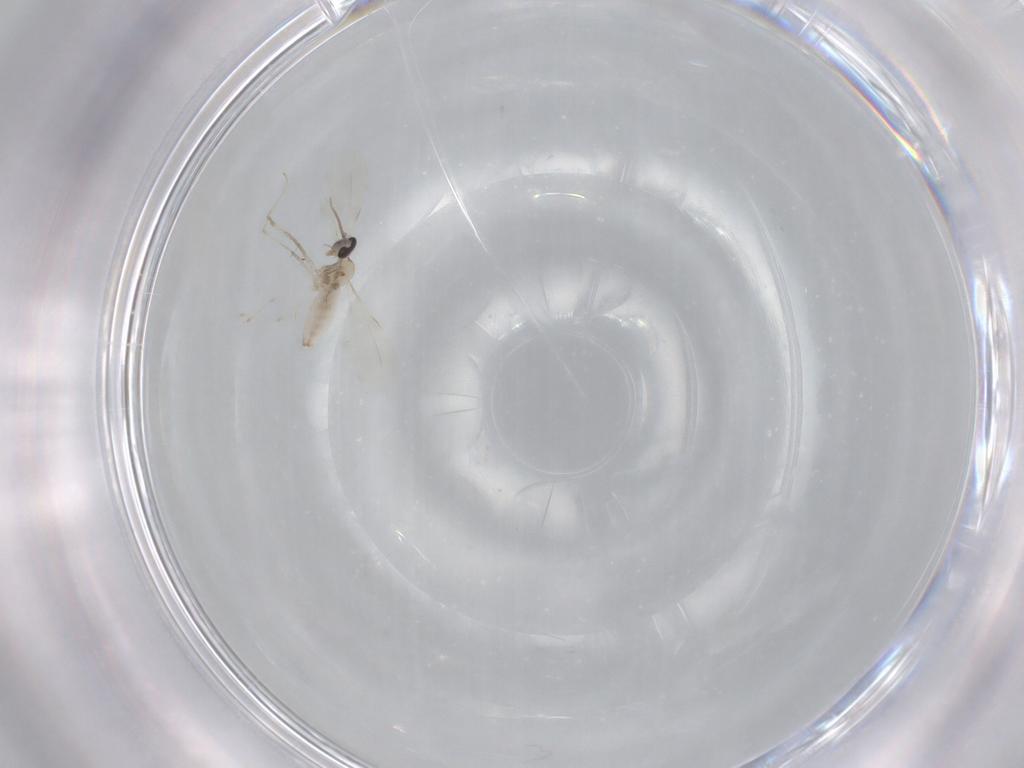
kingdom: Animalia
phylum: Arthropoda
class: Insecta
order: Diptera
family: Cecidomyiidae
